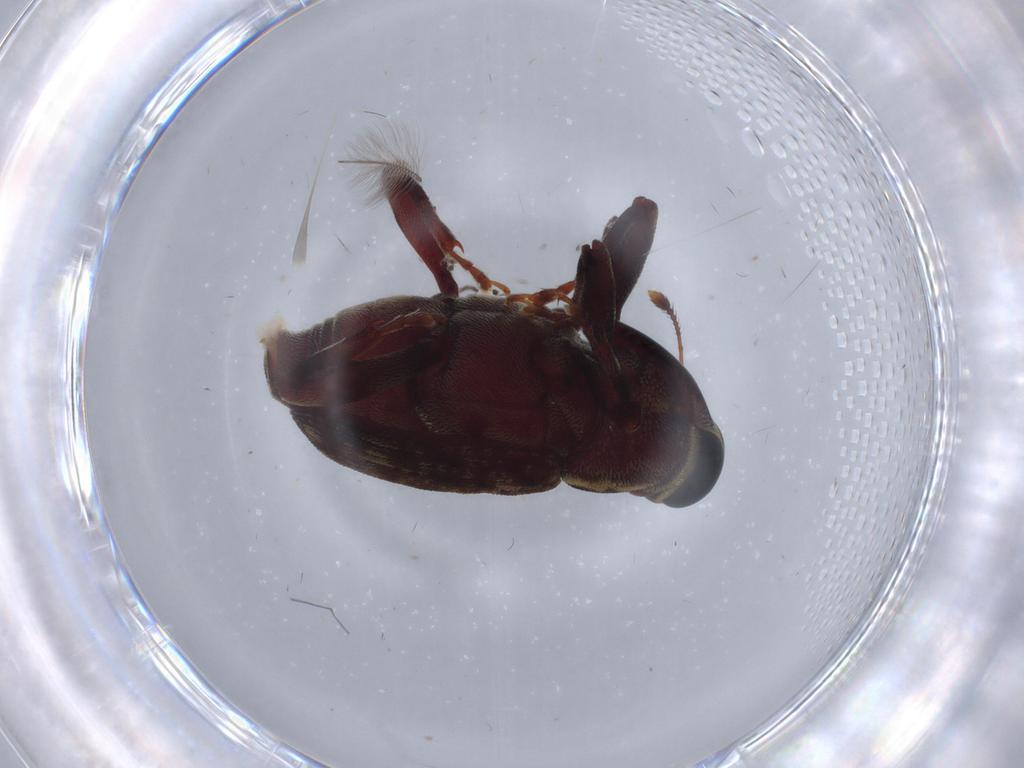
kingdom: Animalia
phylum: Arthropoda
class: Insecta
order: Coleoptera
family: Curculionidae
